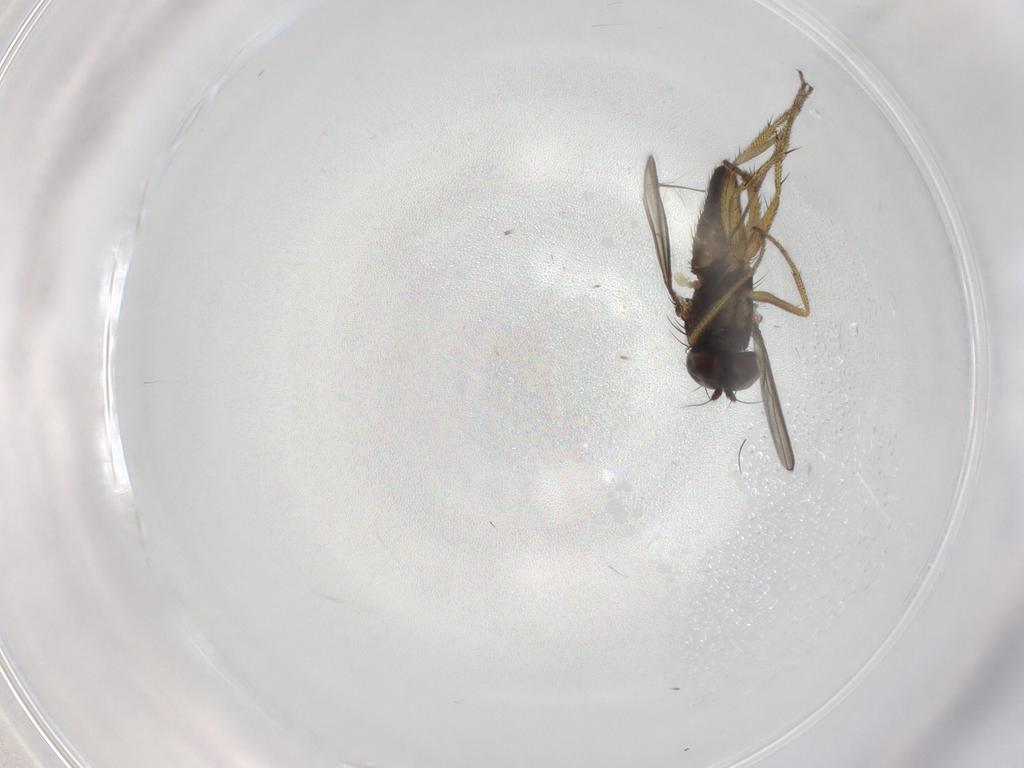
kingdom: Animalia
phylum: Arthropoda
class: Insecta
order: Diptera
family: Chironomidae
